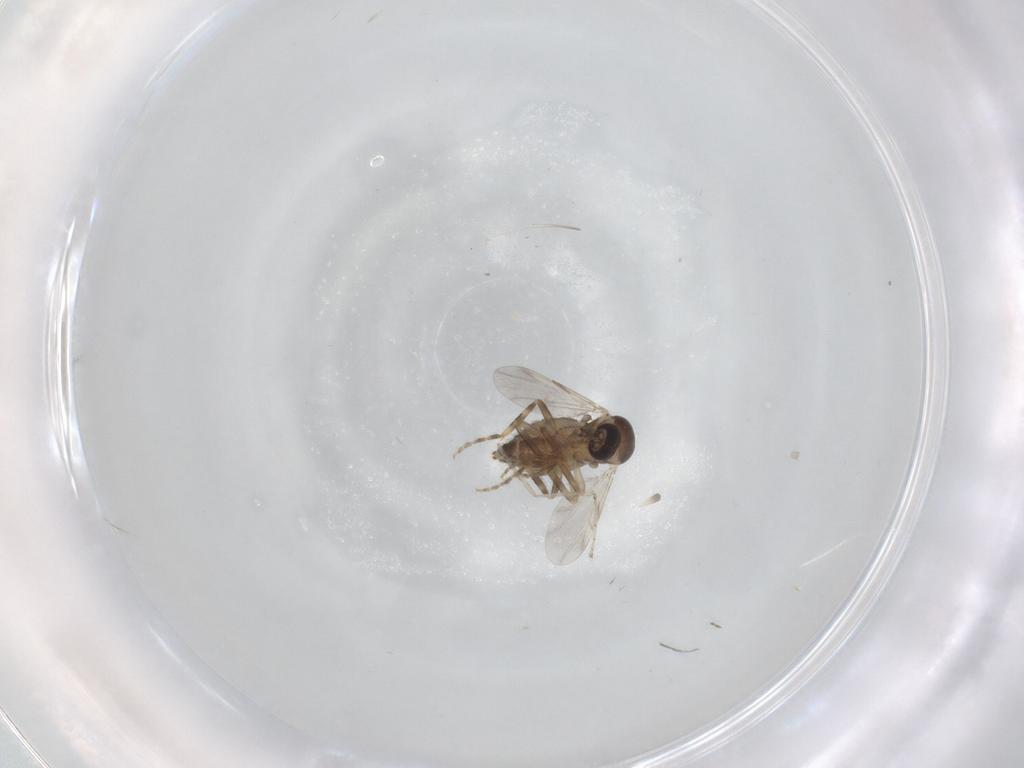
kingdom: Animalia
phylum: Arthropoda
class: Insecta
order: Diptera
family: Ceratopogonidae
